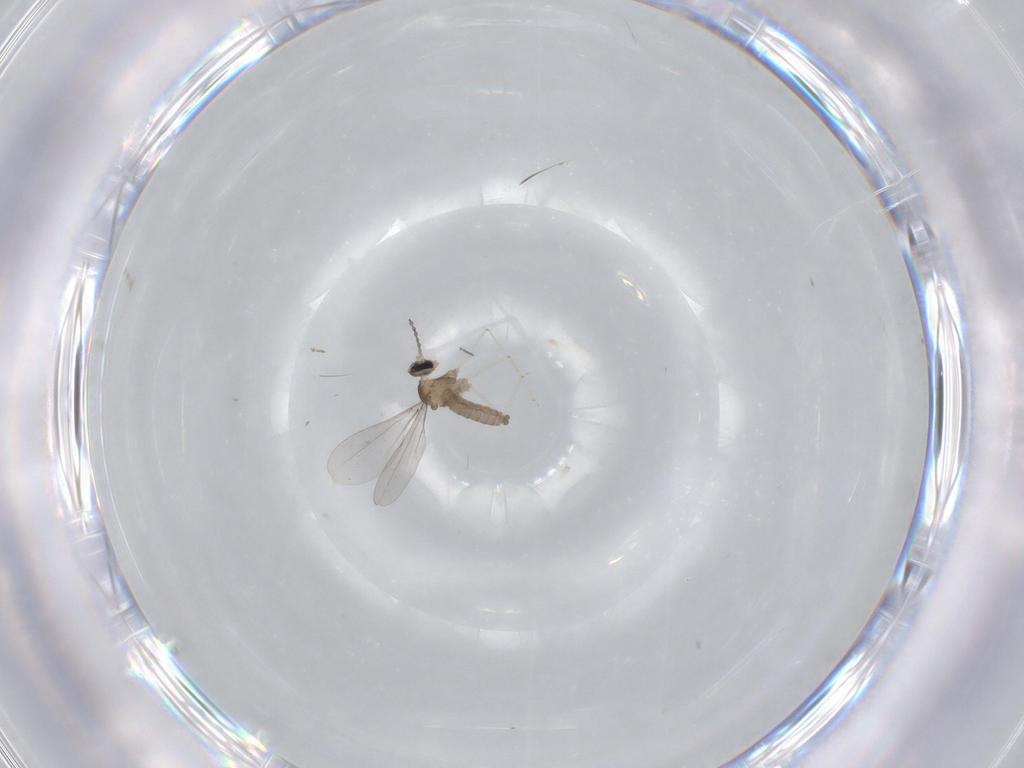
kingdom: Animalia
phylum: Arthropoda
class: Insecta
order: Diptera
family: Cecidomyiidae
